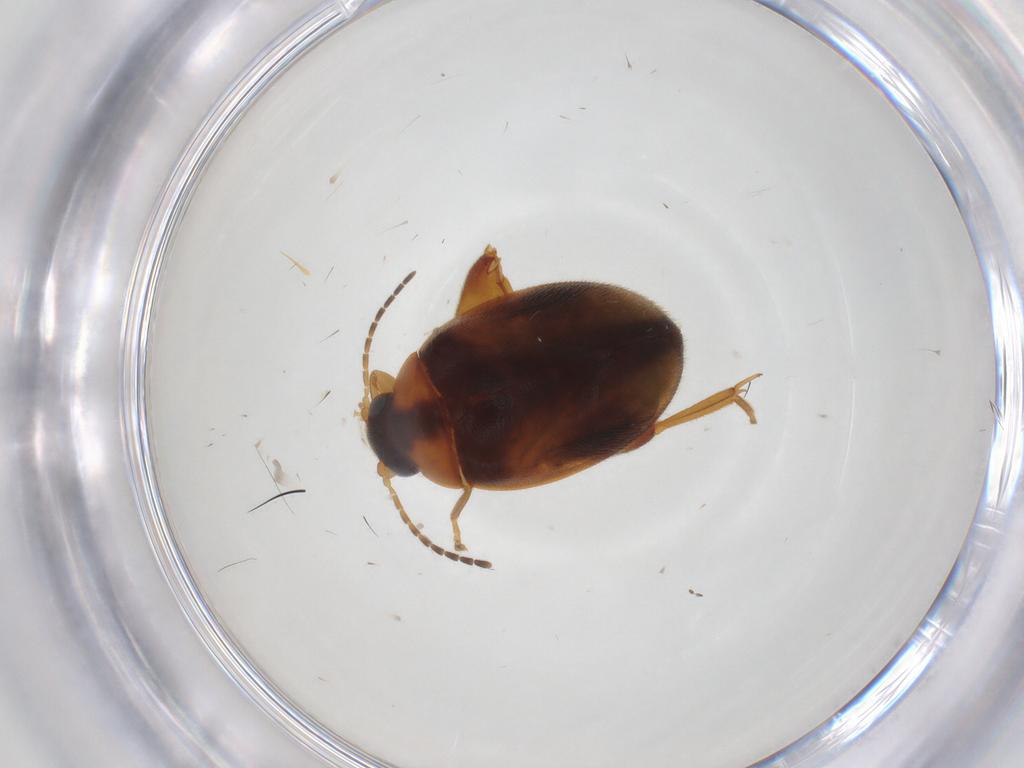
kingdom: Animalia
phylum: Arthropoda
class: Insecta
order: Coleoptera
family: Scirtidae
